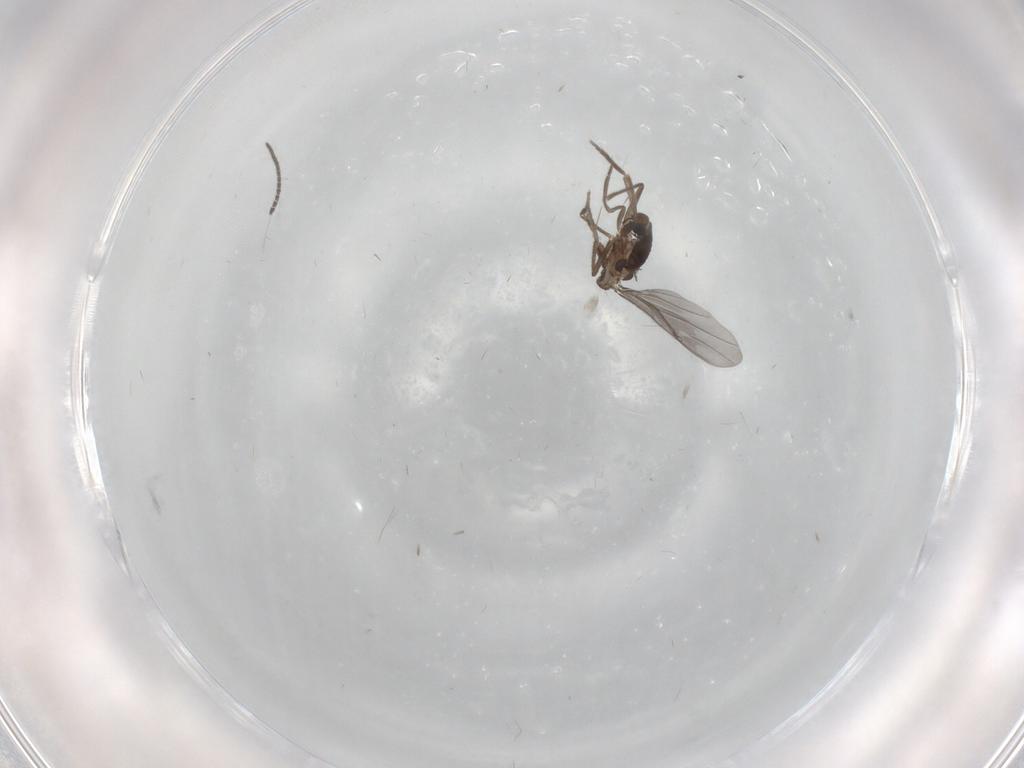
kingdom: Animalia
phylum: Arthropoda
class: Insecta
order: Diptera
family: Phoridae
